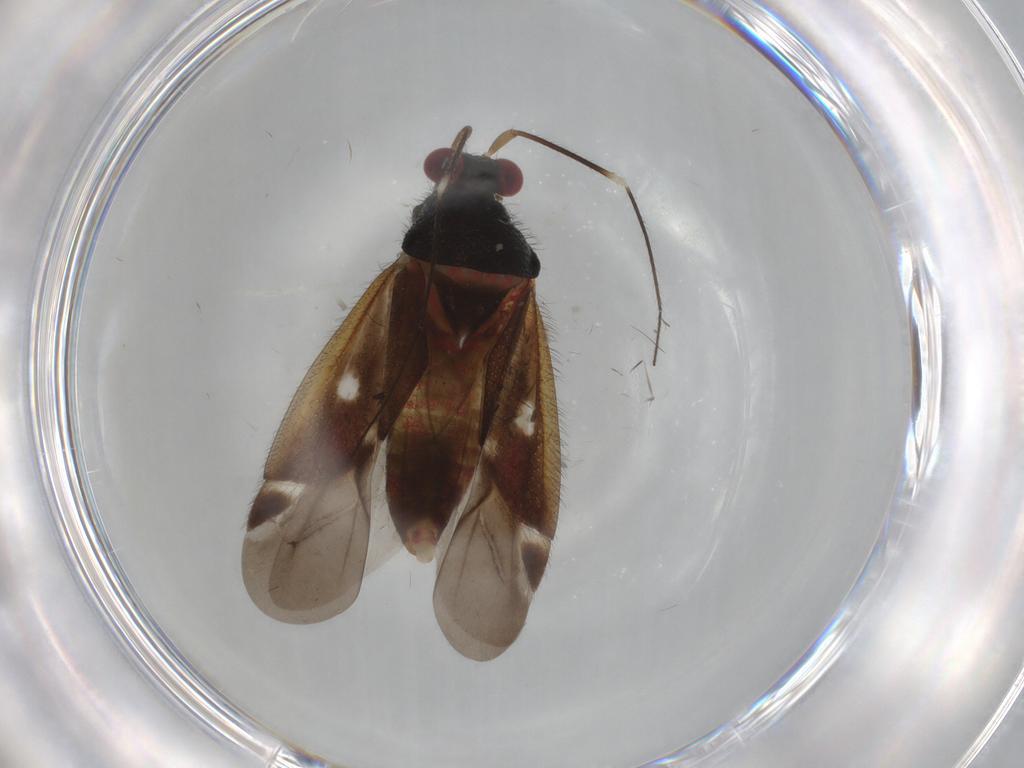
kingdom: Animalia
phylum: Arthropoda
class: Insecta
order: Hemiptera
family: Miridae
